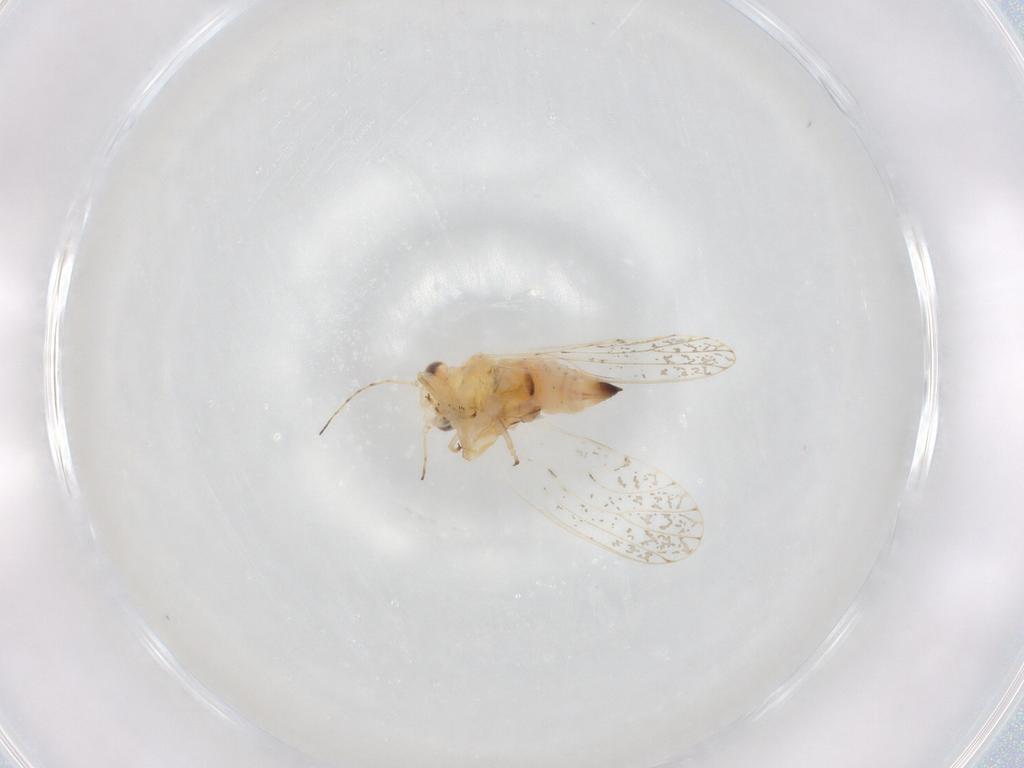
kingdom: Animalia
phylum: Arthropoda
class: Insecta
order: Hemiptera
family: Psyllidae
